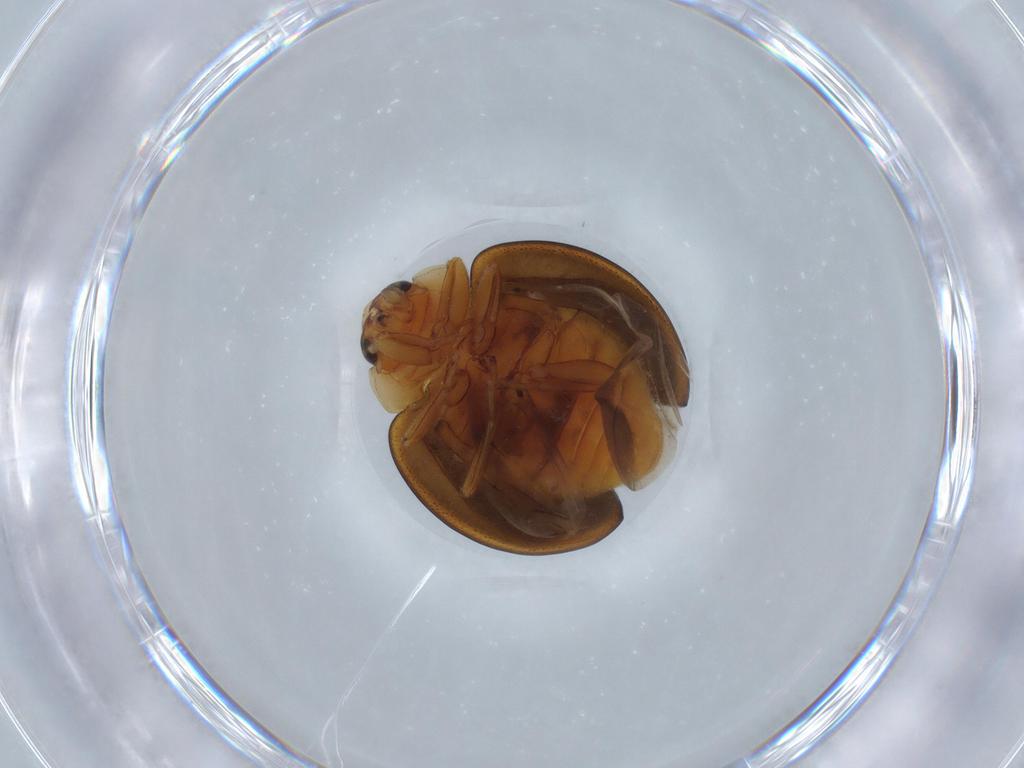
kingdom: Animalia
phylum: Arthropoda
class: Insecta
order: Coleoptera
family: Coccinellidae
